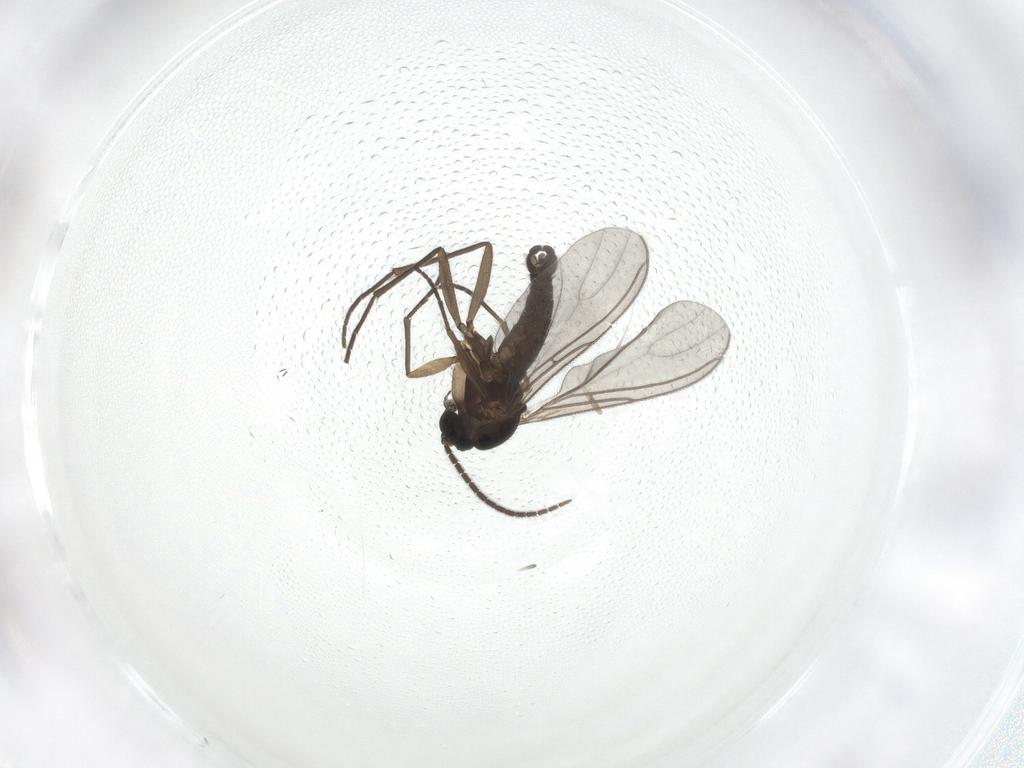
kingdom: Animalia
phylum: Arthropoda
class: Insecta
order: Diptera
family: Sciaridae
